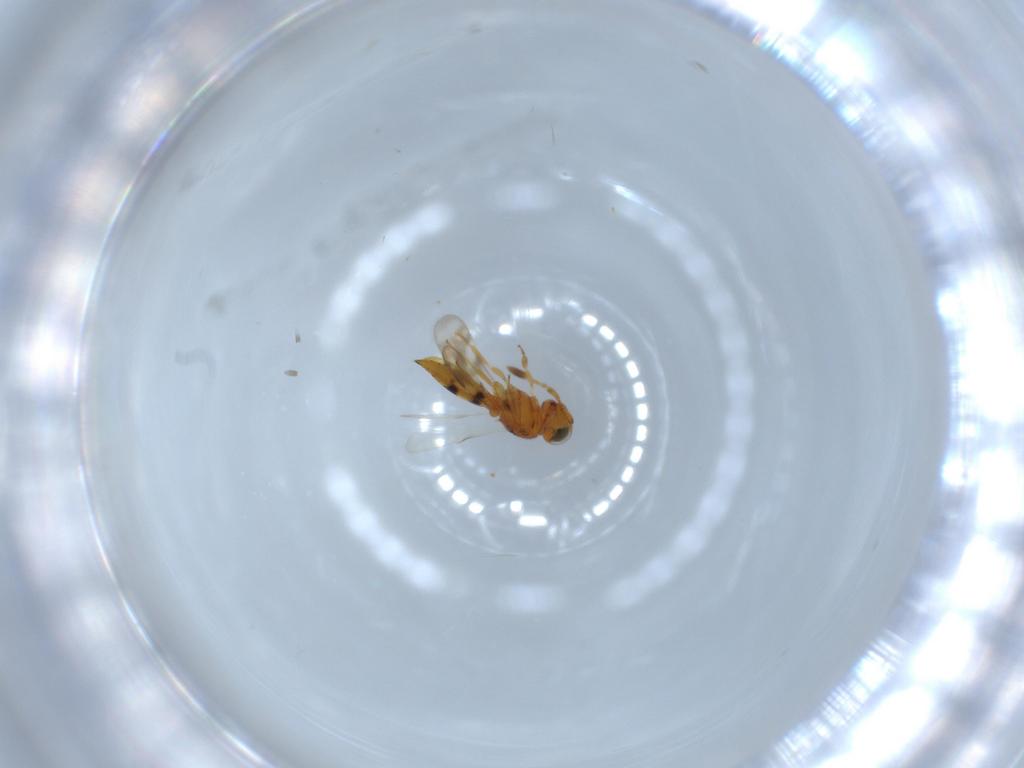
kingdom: Animalia
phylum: Arthropoda
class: Insecta
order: Hymenoptera
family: Scelionidae
